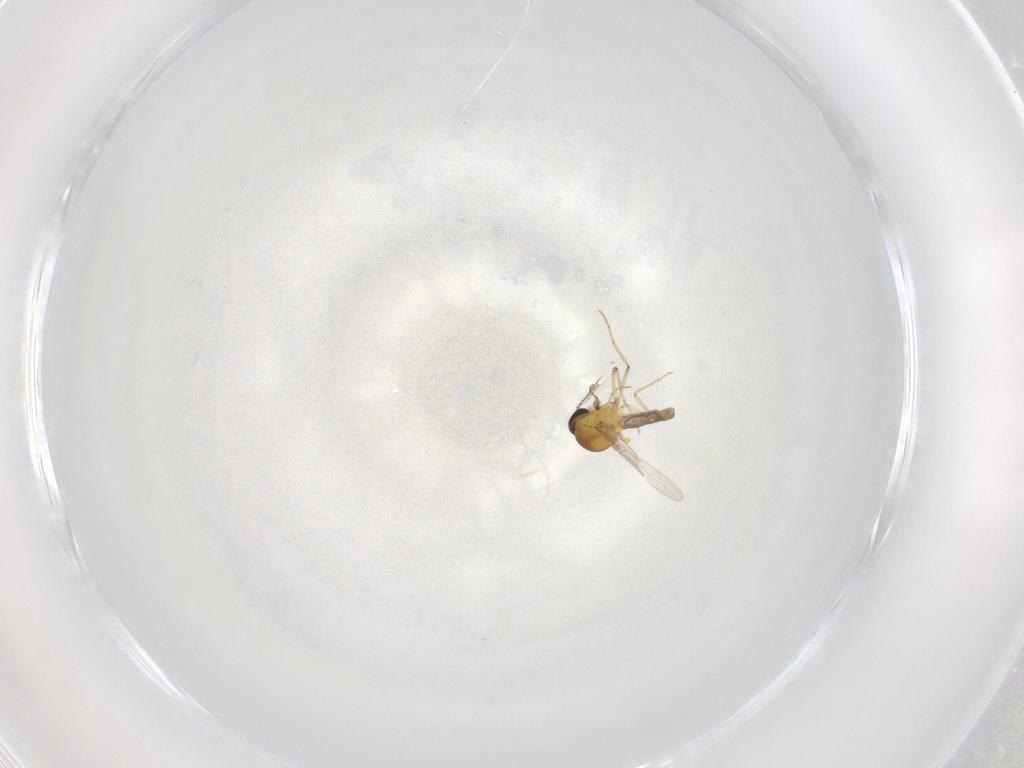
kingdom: Animalia
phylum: Arthropoda
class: Insecta
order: Diptera
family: Ceratopogonidae
